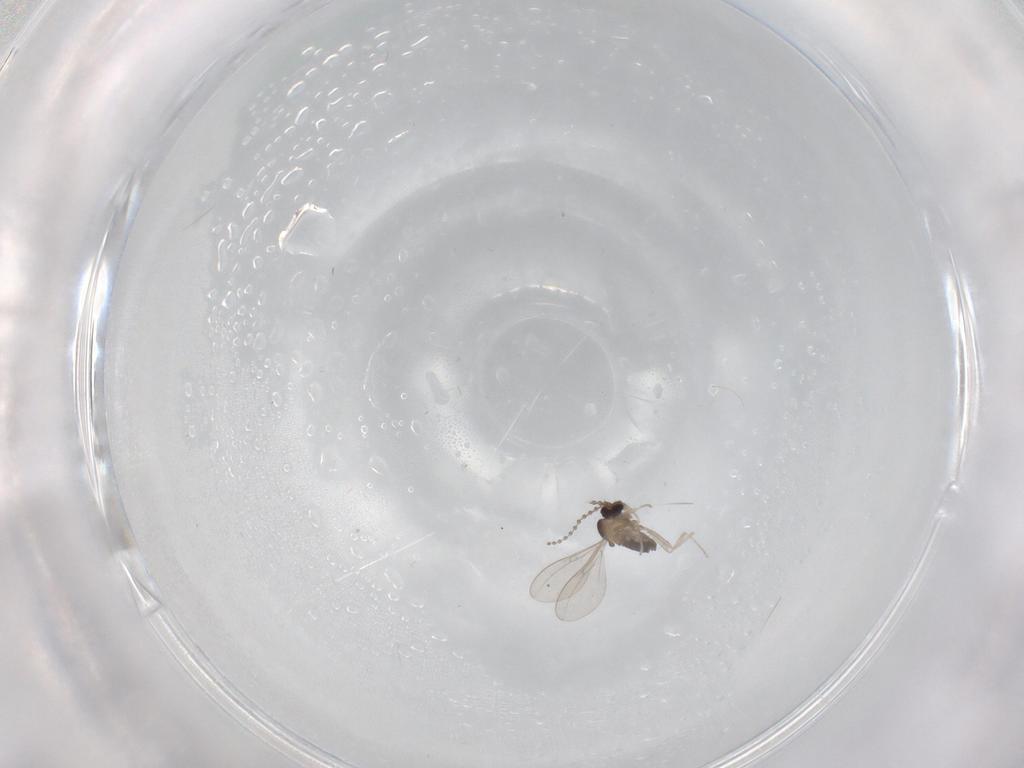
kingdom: Animalia
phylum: Arthropoda
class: Insecta
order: Diptera
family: Cecidomyiidae
